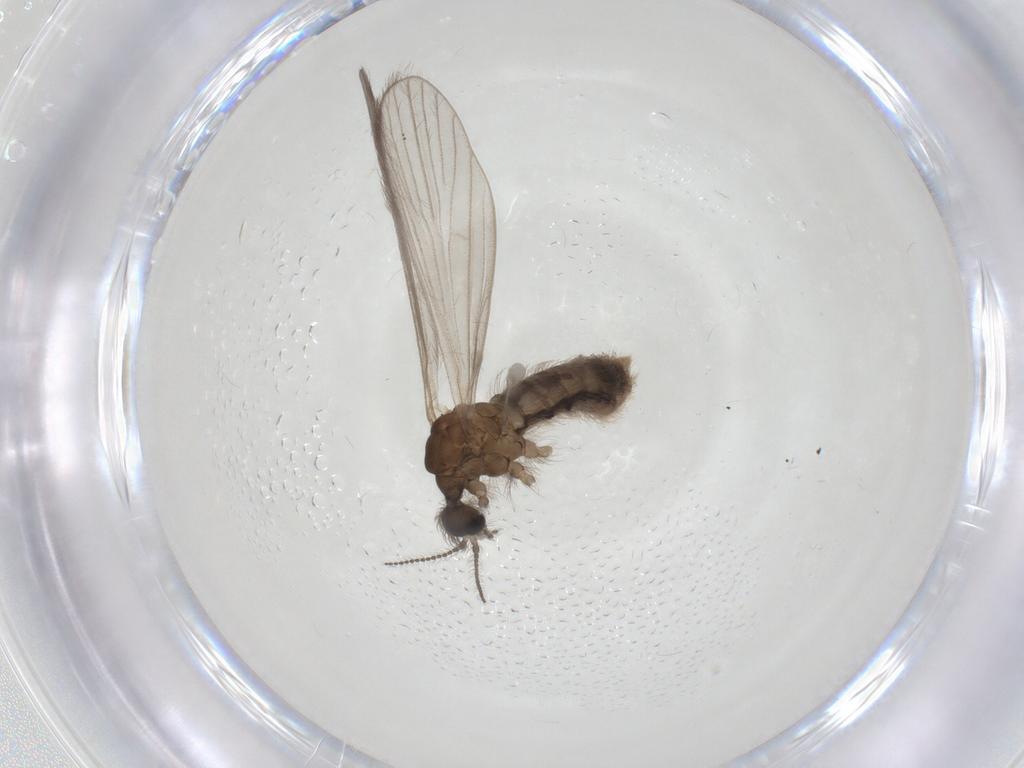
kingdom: Animalia
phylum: Arthropoda
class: Insecta
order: Diptera
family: Limoniidae
